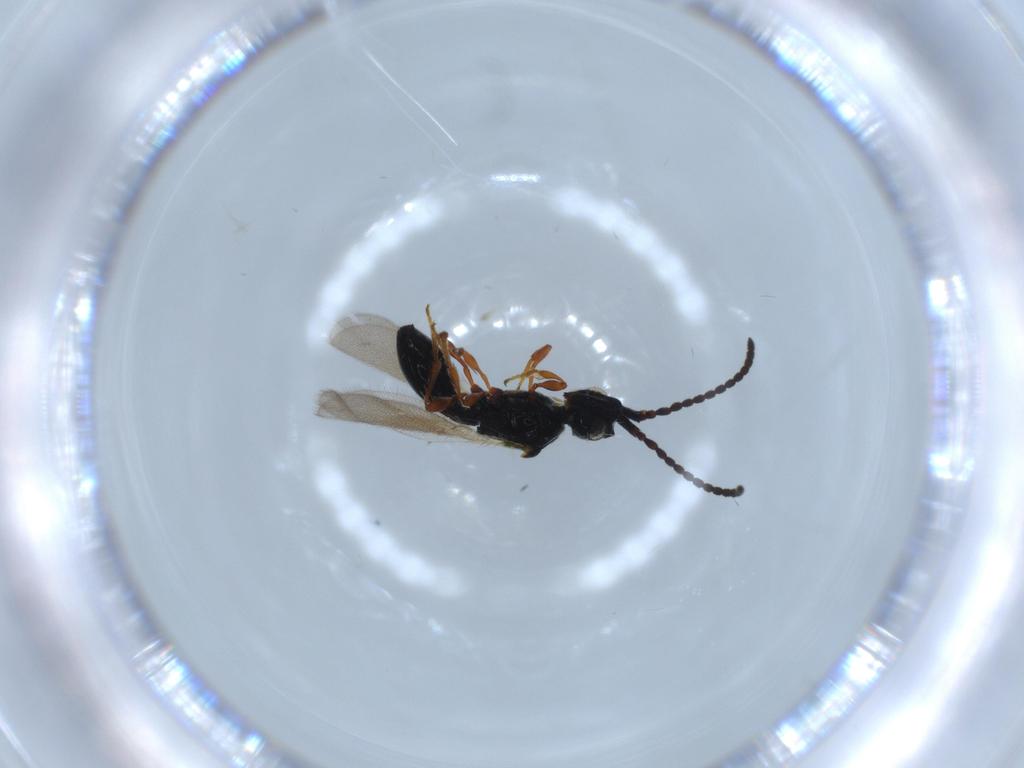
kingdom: Animalia
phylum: Arthropoda
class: Insecta
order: Hymenoptera
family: Diapriidae
